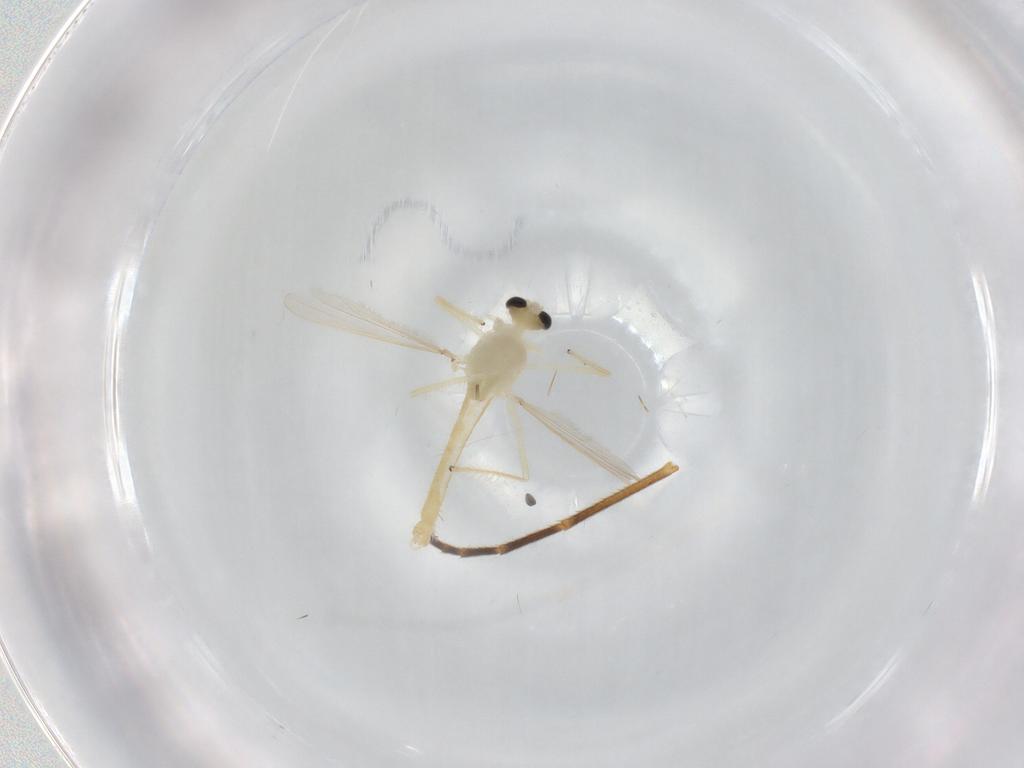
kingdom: Animalia
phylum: Arthropoda
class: Insecta
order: Diptera
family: Chironomidae
